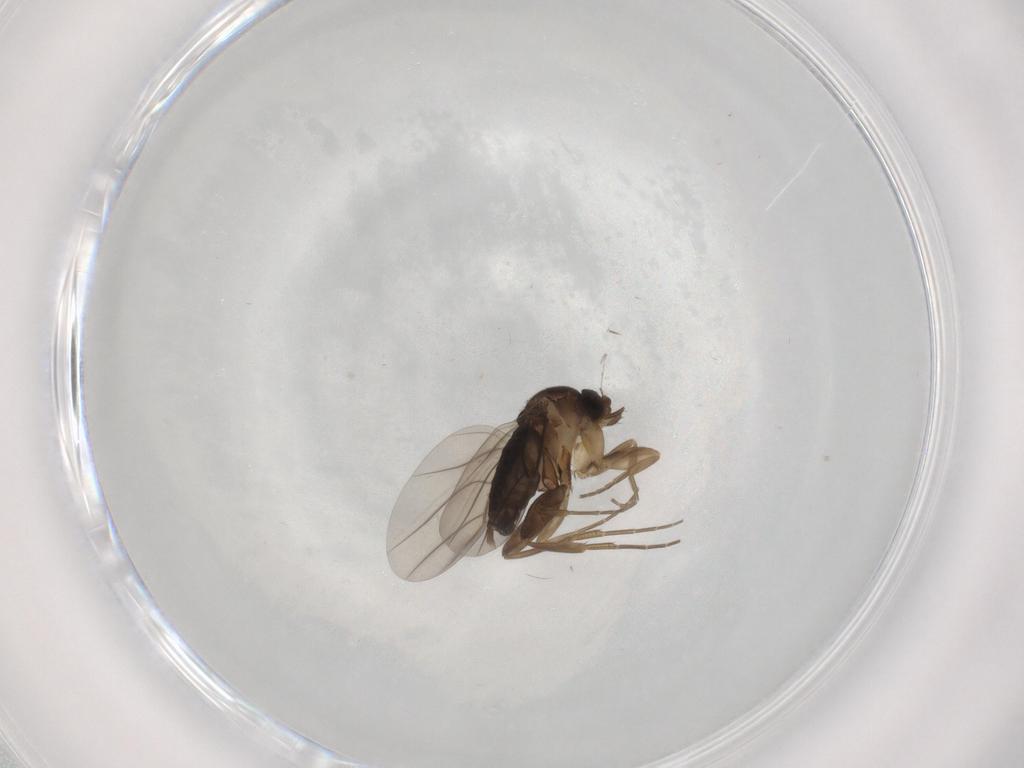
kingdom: Animalia
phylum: Arthropoda
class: Insecta
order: Diptera
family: Phoridae
